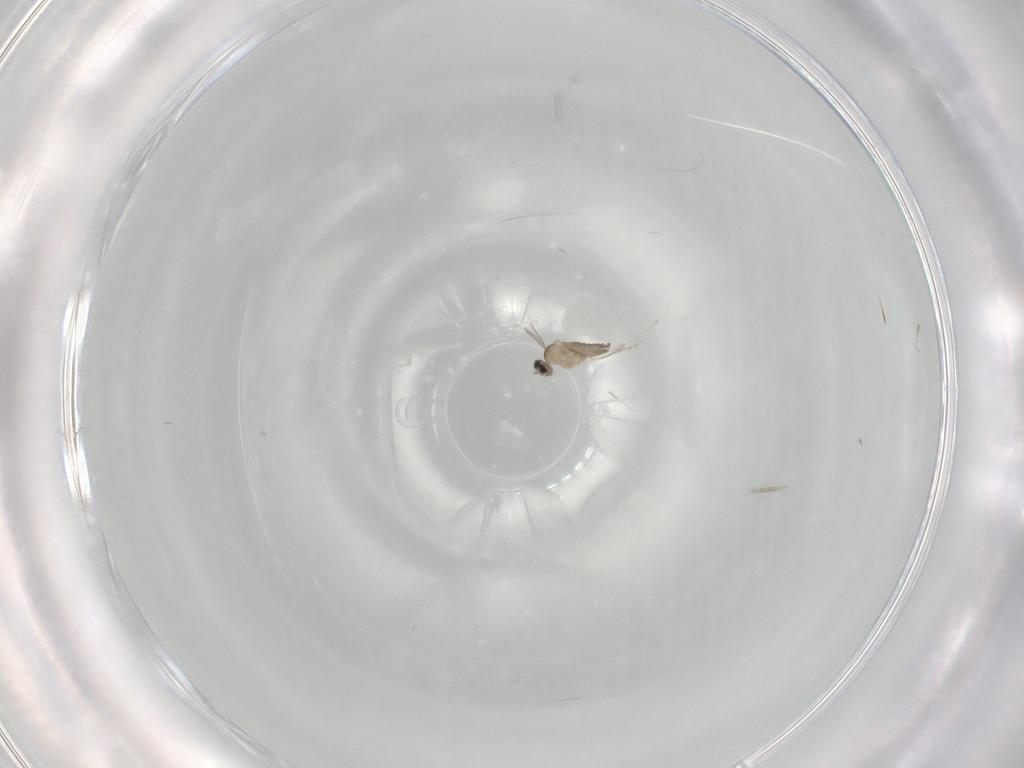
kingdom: Animalia
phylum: Arthropoda
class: Insecta
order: Diptera
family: Cecidomyiidae
